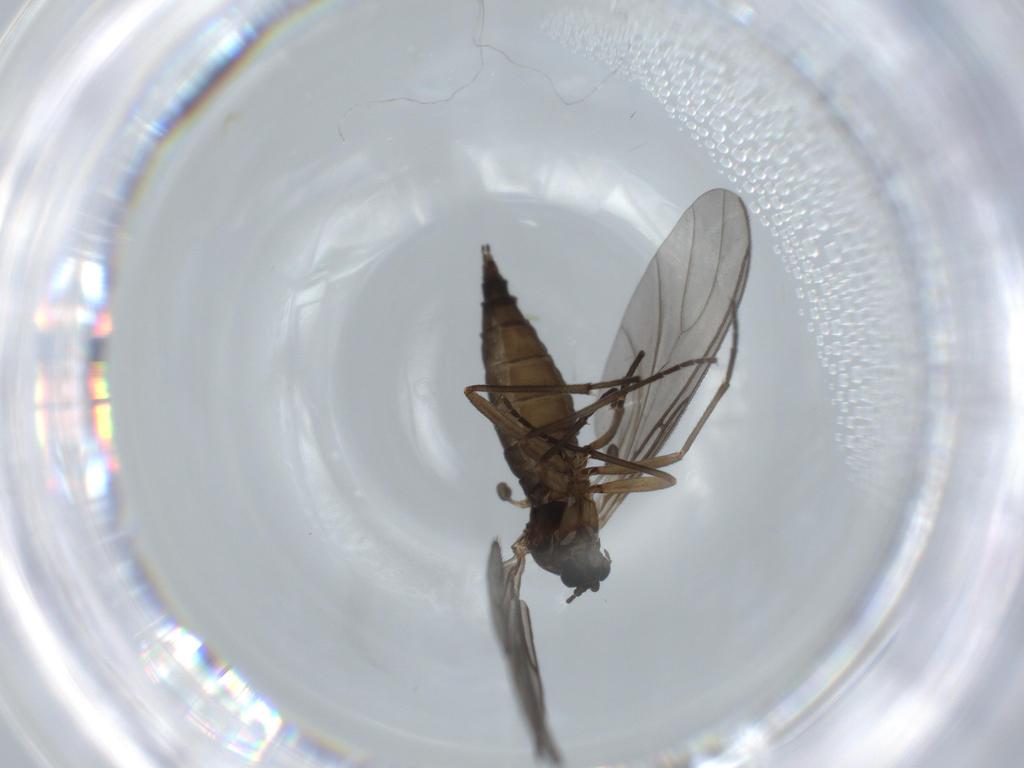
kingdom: Animalia
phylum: Arthropoda
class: Insecta
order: Diptera
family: Sciaridae
